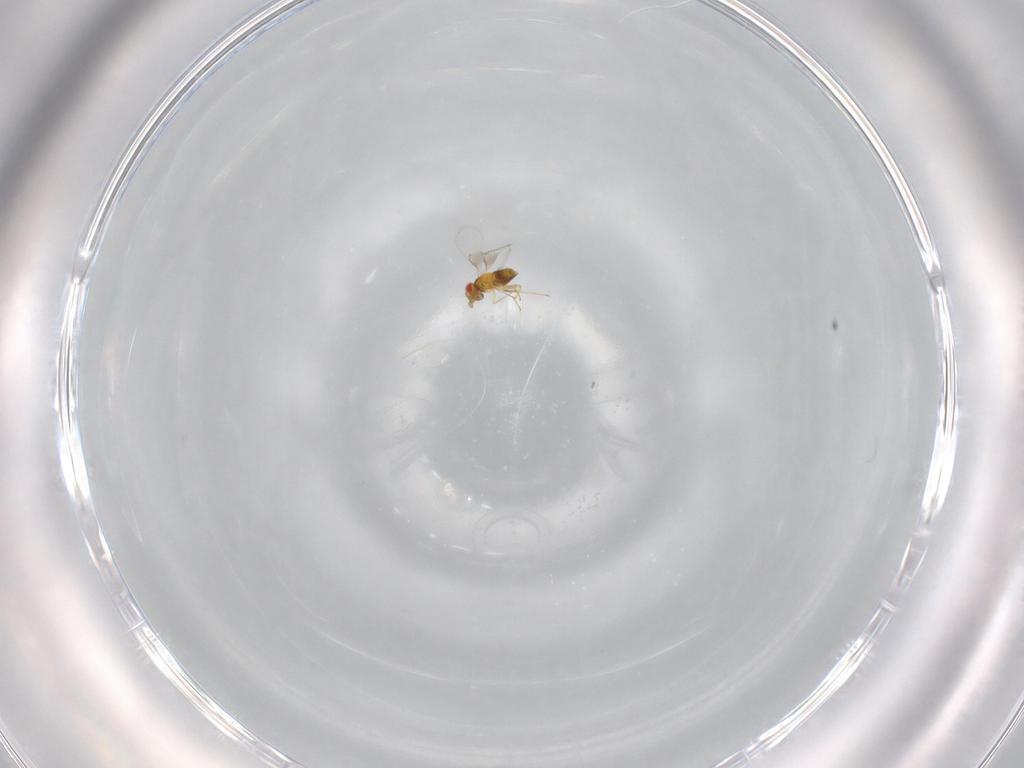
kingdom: Animalia
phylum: Arthropoda
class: Insecta
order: Hymenoptera
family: Trichogrammatidae
